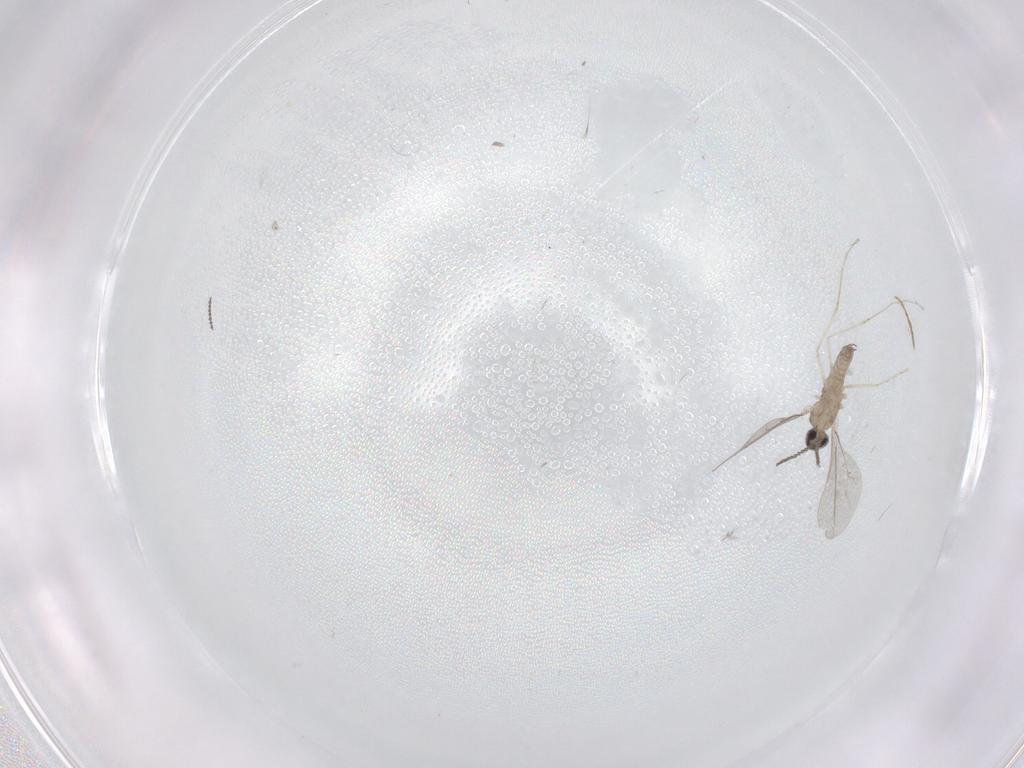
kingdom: Animalia
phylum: Arthropoda
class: Insecta
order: Diptera
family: Cecidomyiidae
